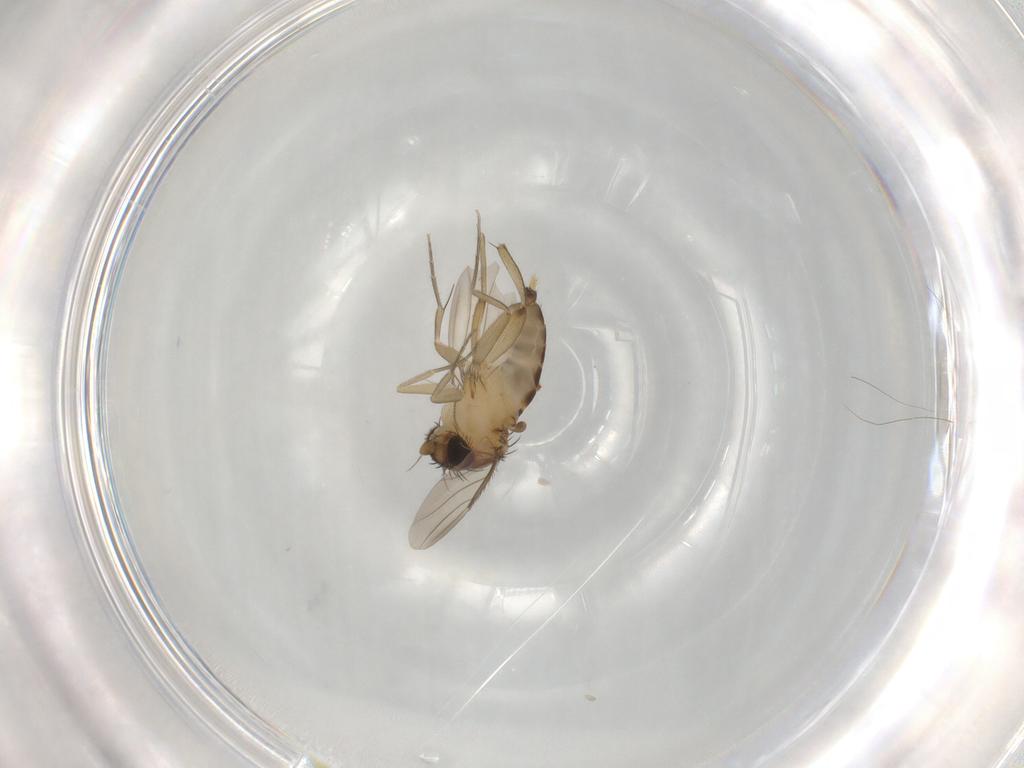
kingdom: Animalia
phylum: Arthropoda
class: Insecta
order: Diptera
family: Phoridae
